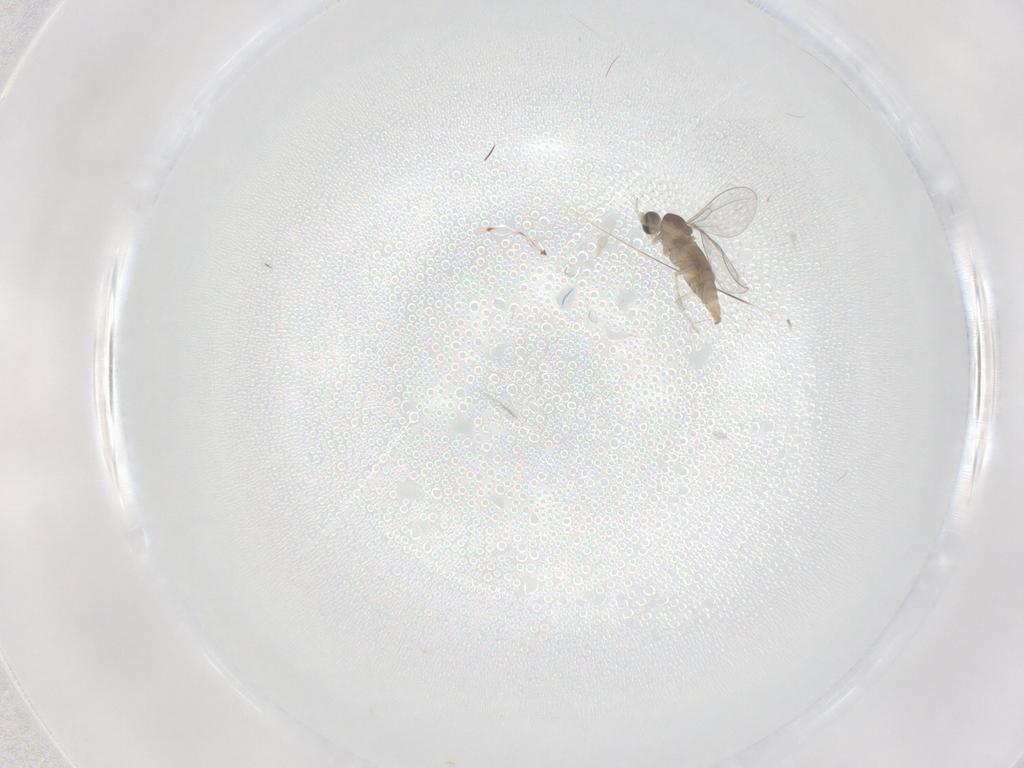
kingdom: Animalia
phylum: Arthropoda
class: Insecta
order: Diptera
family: Cecidomyiidae
